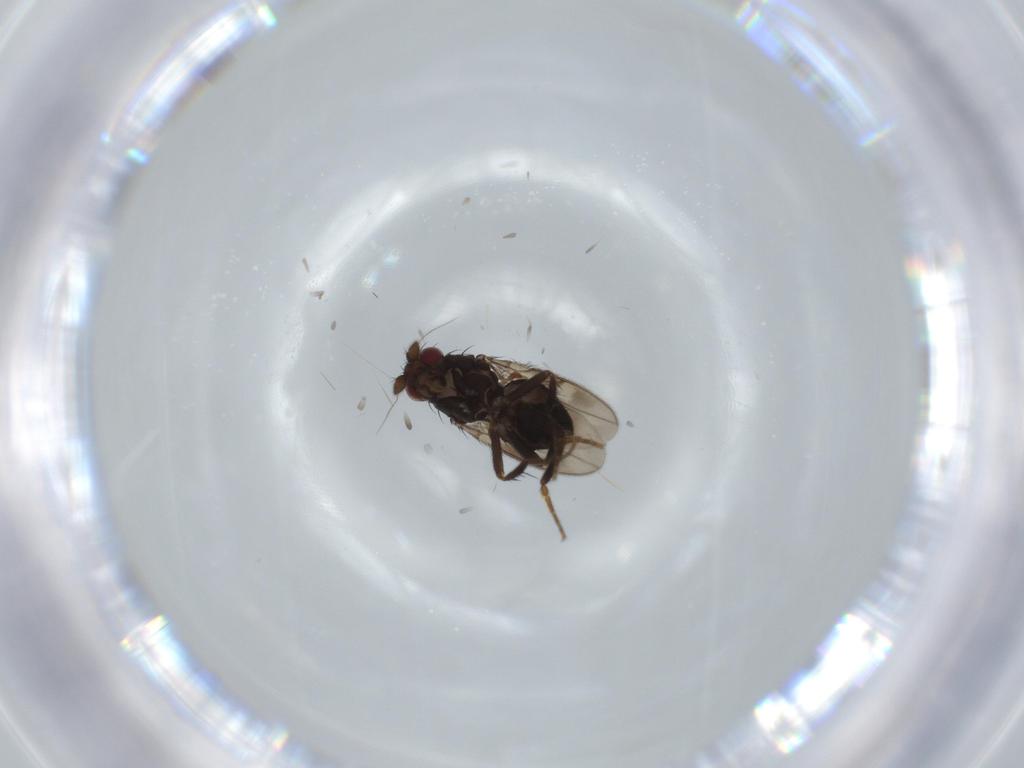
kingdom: Animalia
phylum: Arthropoda
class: Insecta
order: Diptera
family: Sphaeroceridae
